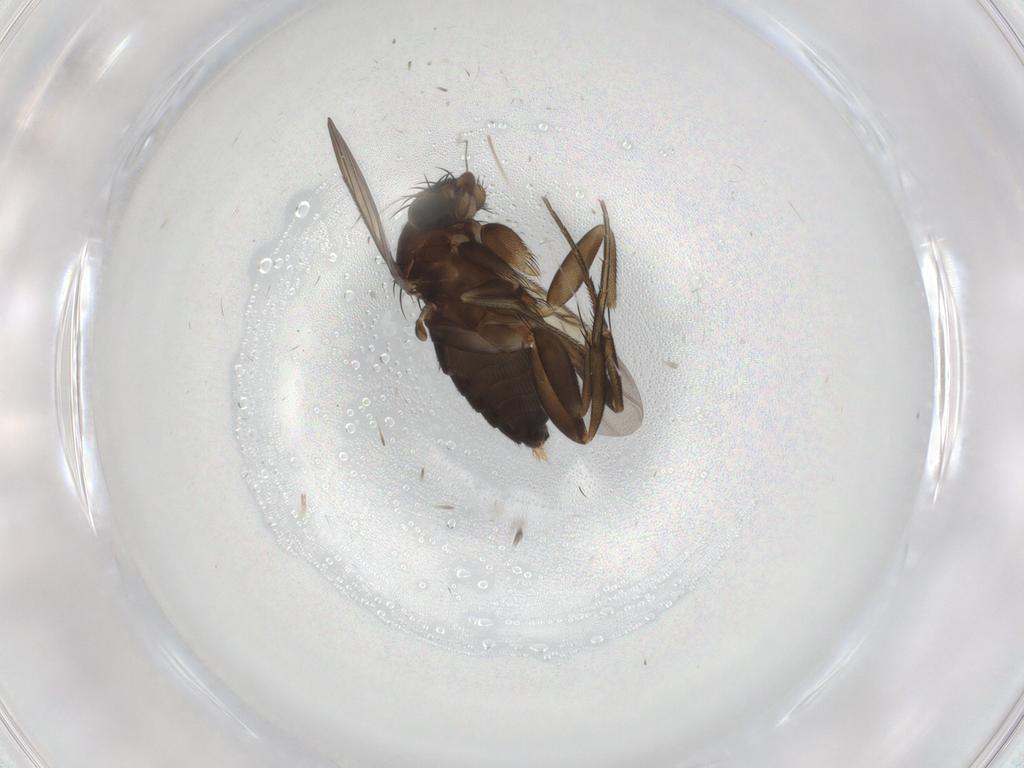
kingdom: Animalia
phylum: Arthropoda
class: Insecta
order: Diptera
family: Phoridae
